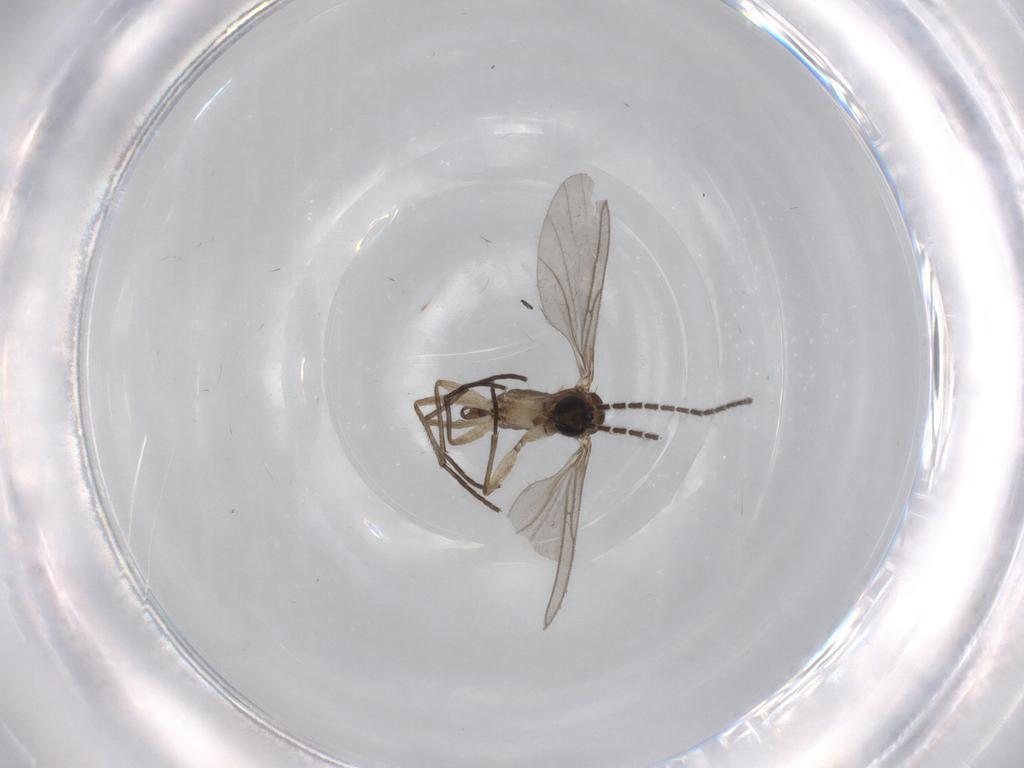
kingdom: Animalia
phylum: Arthropoda
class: Insecta
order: Diptera
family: Sciaridae
